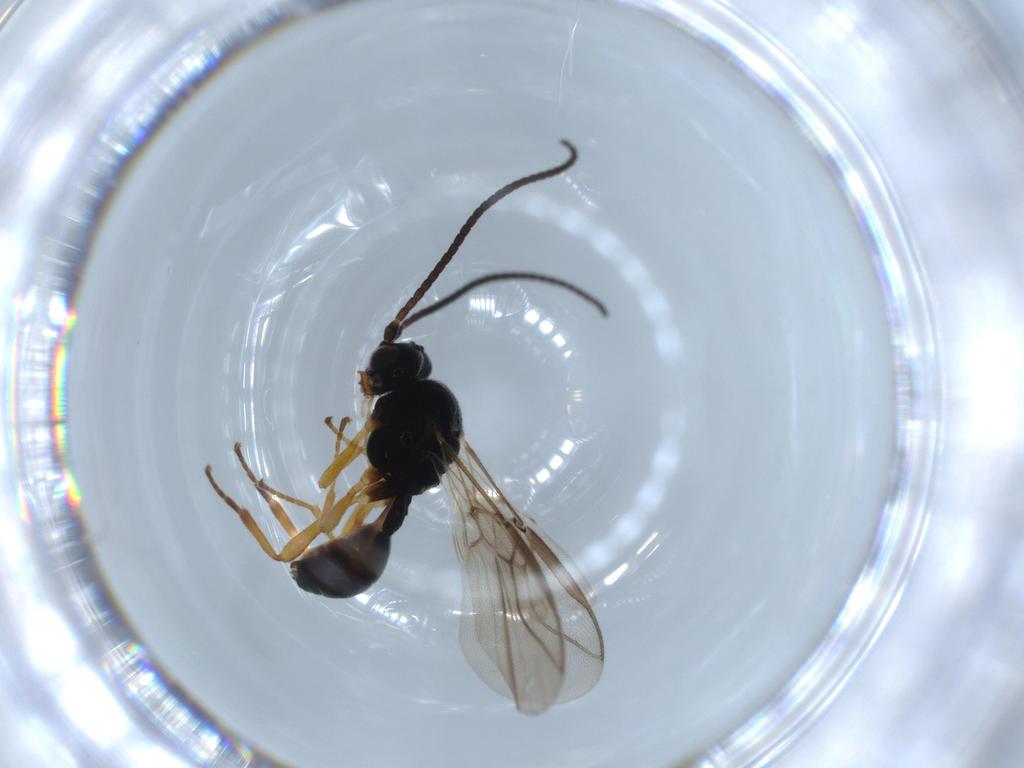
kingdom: Animalia
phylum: Arthropoda
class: Insecta
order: Hymenoptera
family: Braconidae
